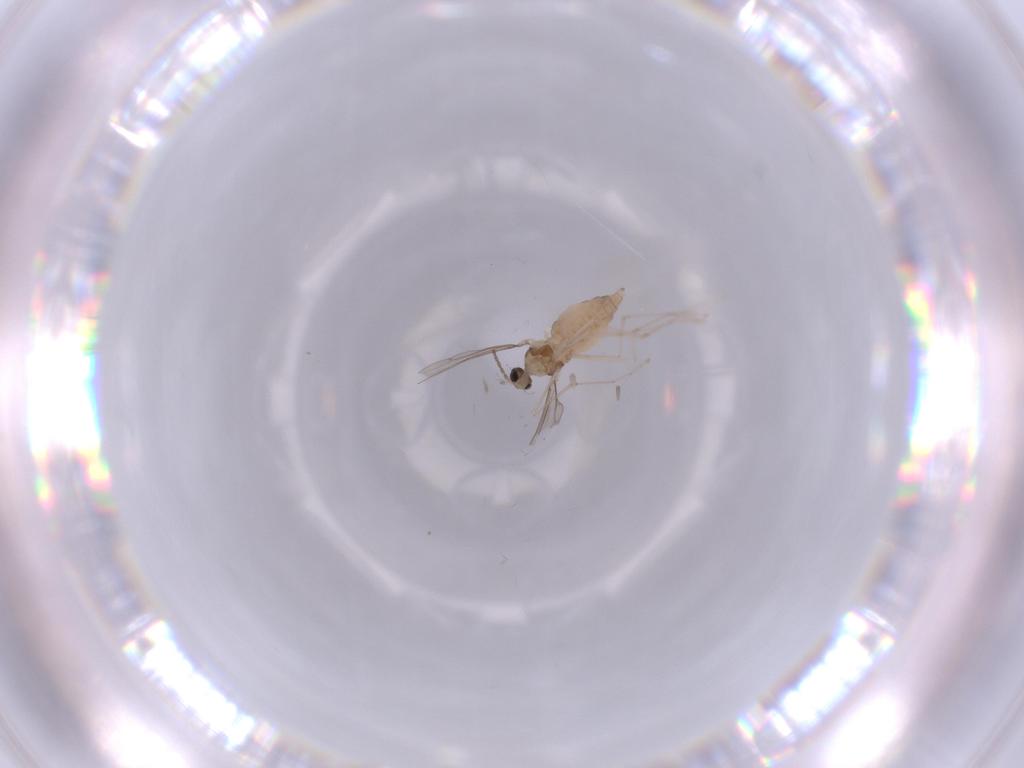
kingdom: Animalia
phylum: Arthropoda
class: Insecta
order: Diptera
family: Cecidomyiidae
